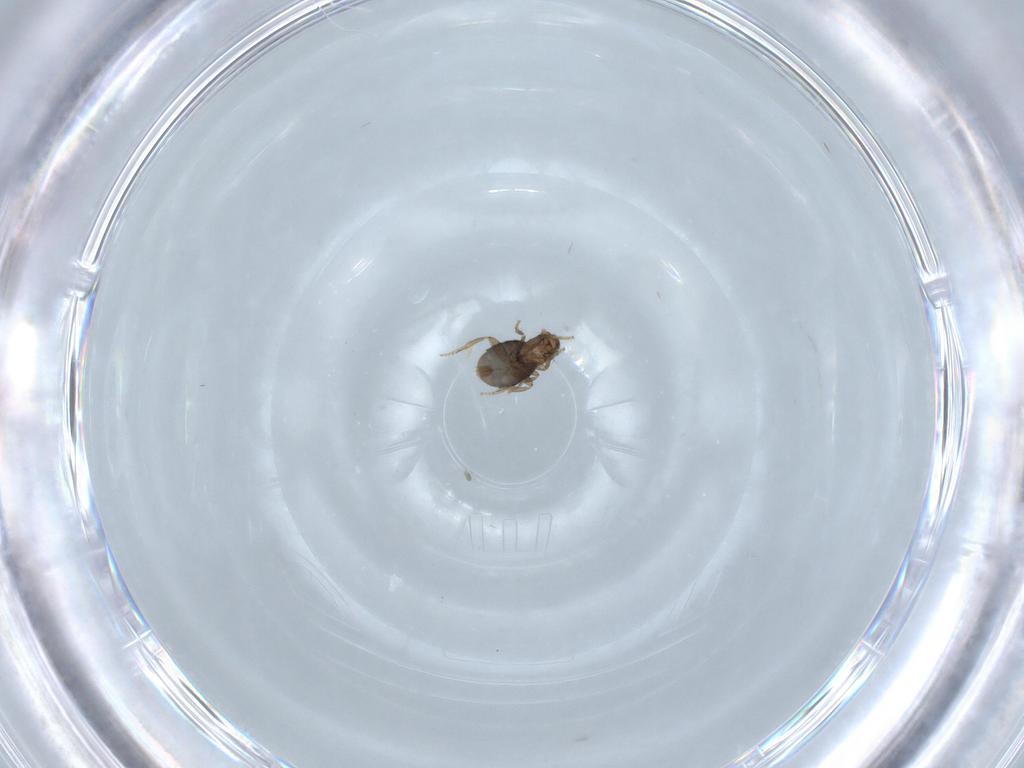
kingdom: Animalia
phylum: Arthropoda
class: Insecta
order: Diptera
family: Cecidomyiidae
